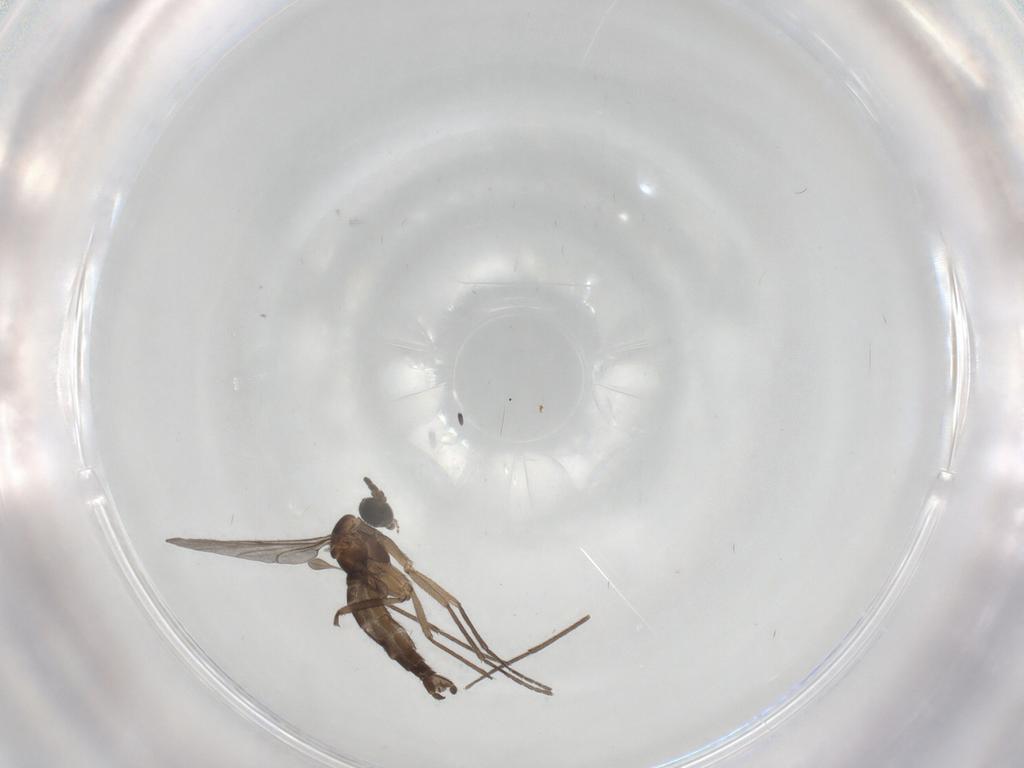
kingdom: Animalia
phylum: Arthropoda
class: Insecta
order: Diptera
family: Sciaridae
